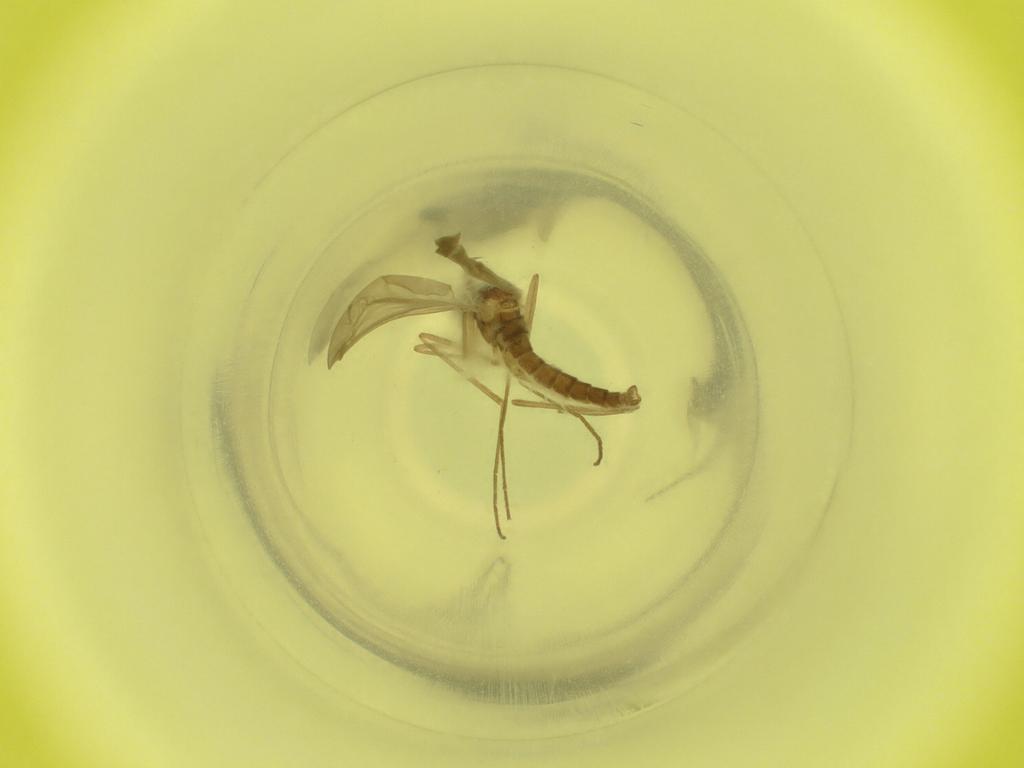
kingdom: Animalia
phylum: Arthropoda
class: Insecta
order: Diptera
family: Cecidomyiidae
